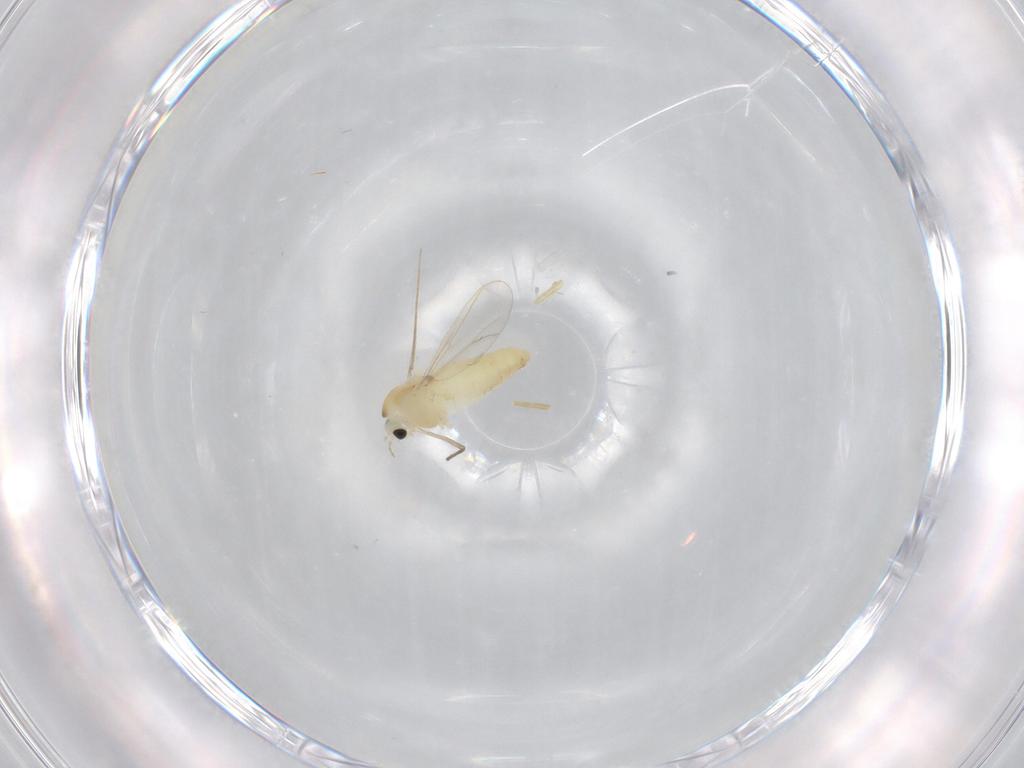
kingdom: Animalia
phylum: Arthropoda
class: Insecta
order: Diptera
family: Chironomidae
